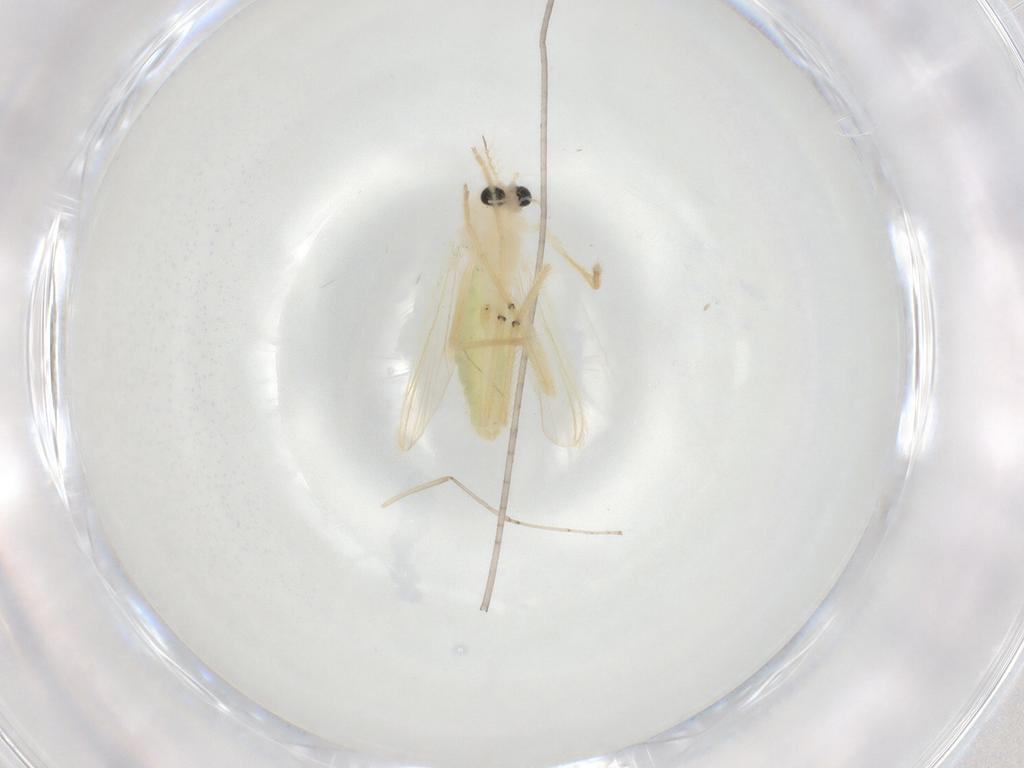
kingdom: Animalia
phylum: Arthropoda
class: Insecta
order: Diptera
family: Chironomidae
